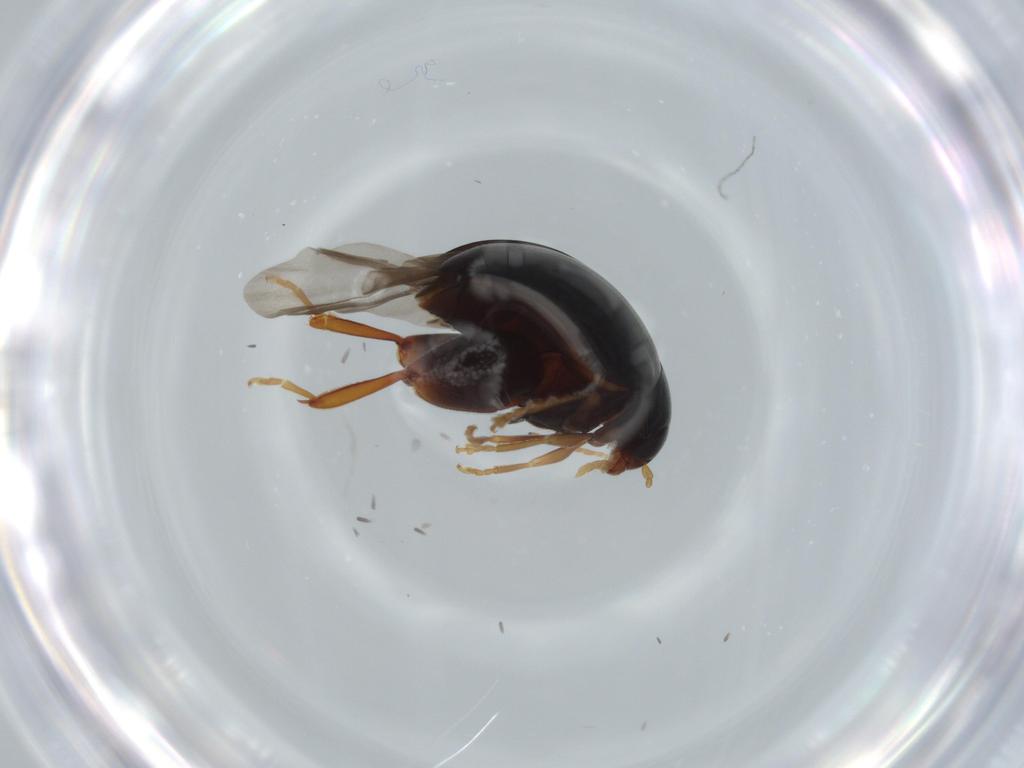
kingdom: Animalia
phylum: Arthropoda
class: Insecta
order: Coleoptera
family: Chrysomelidae
